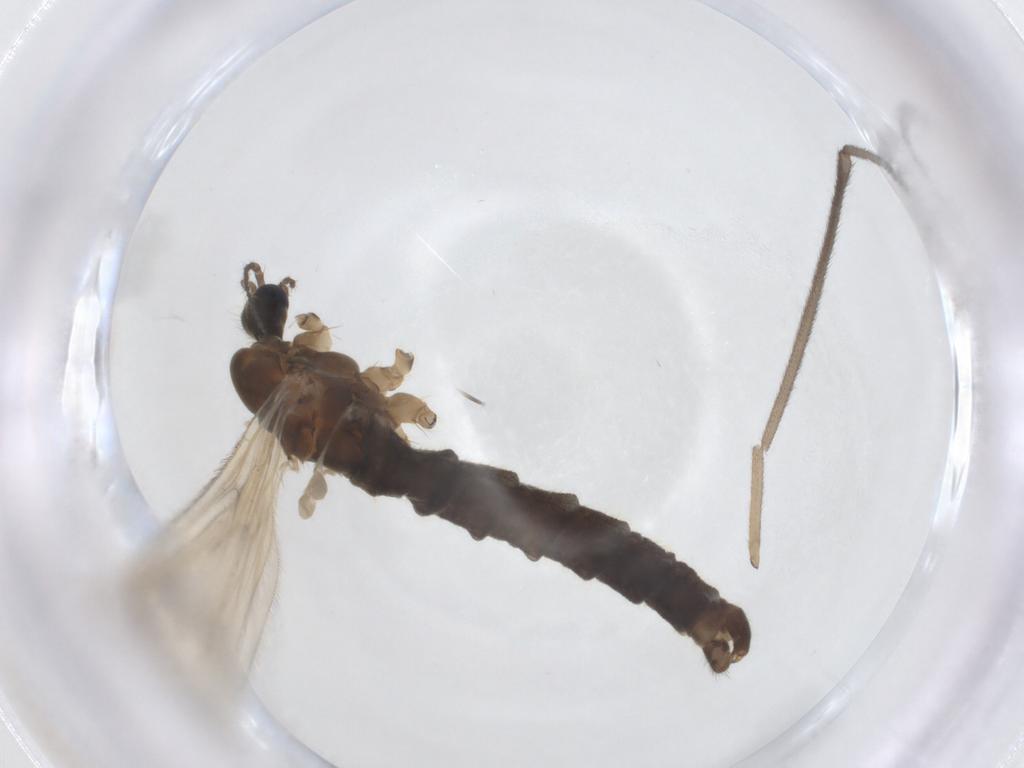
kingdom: Animalia
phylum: Arthropoda
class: Insecta
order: Diptera
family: Limoniidae
